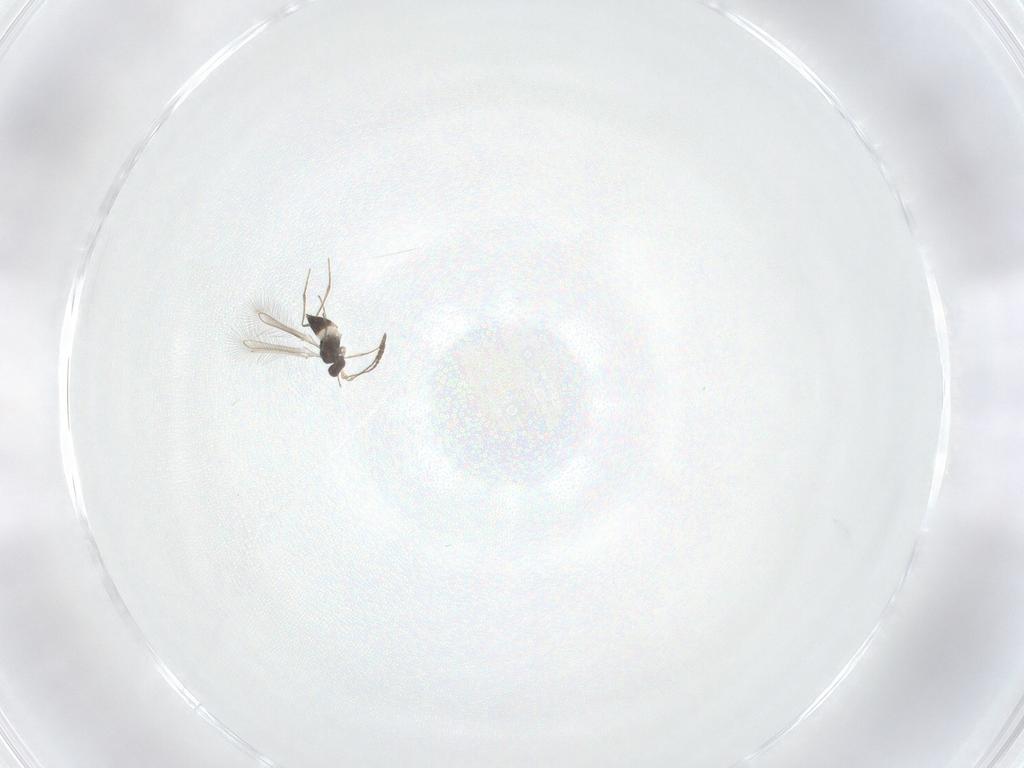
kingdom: Animalia
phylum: Arthropoda
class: Insecta
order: Hymenoptera
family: Mymaridae
